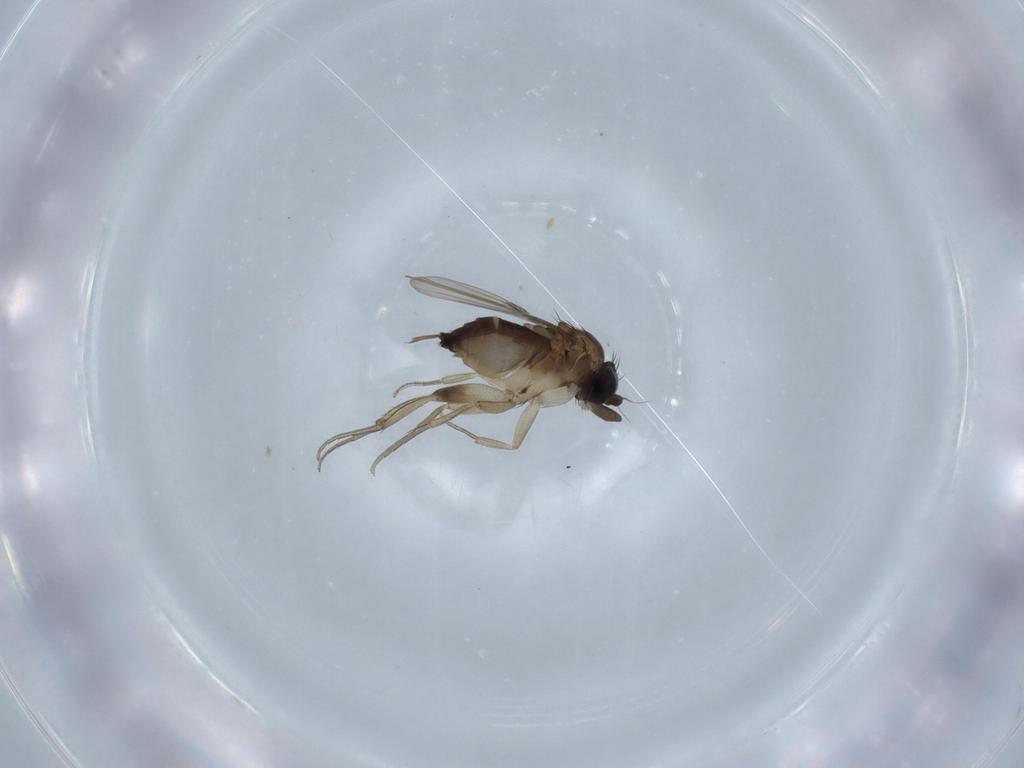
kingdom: Animalia
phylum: Arthropoda
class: Insecta
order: Diptera
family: Phoridae
